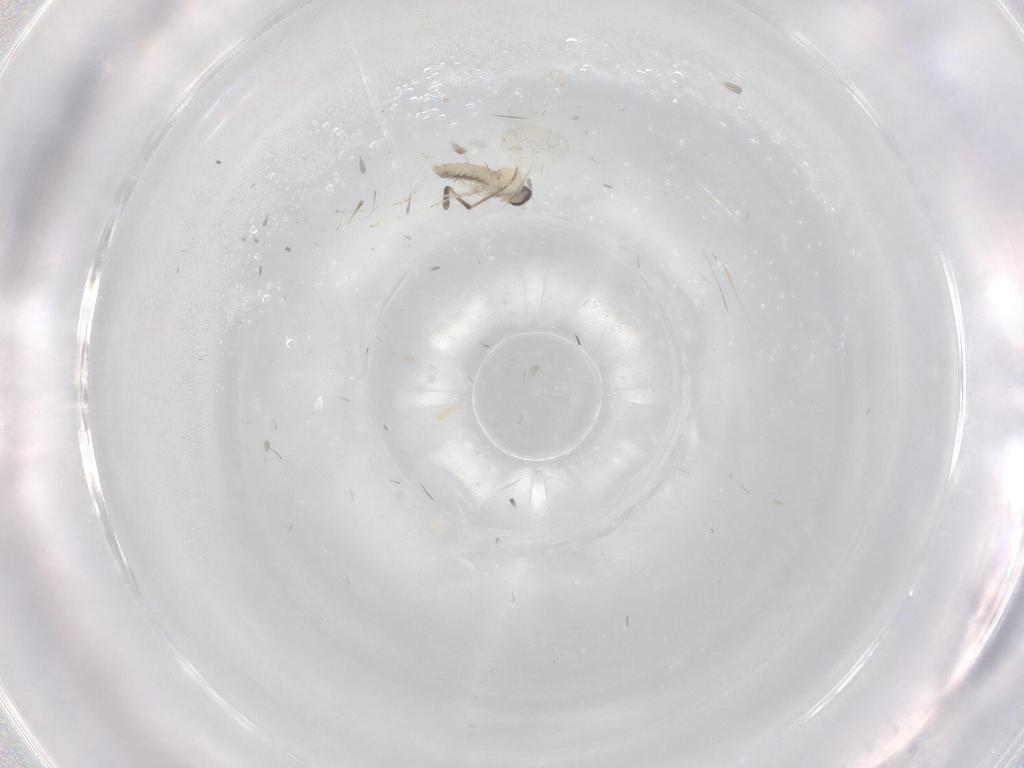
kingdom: Animalia
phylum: Arthropoda
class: Insecta
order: Diptera
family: Cecidomyiidae
